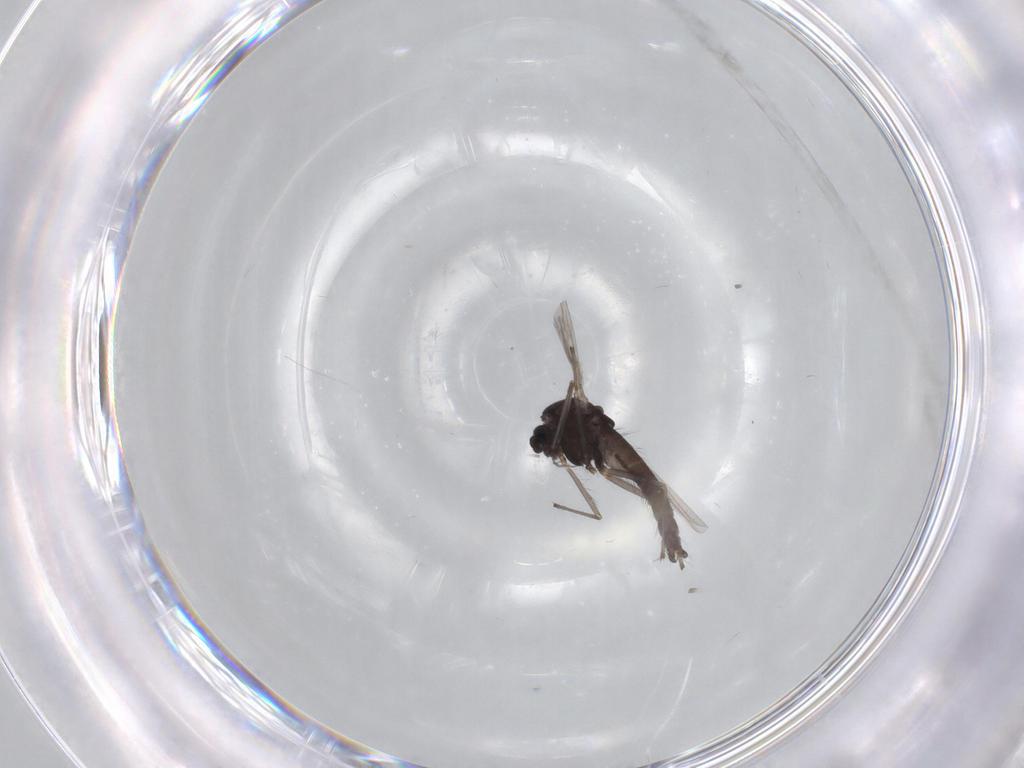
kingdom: Animalia
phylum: Arthropoda
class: Insecta
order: Diptera
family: Chironomidae
